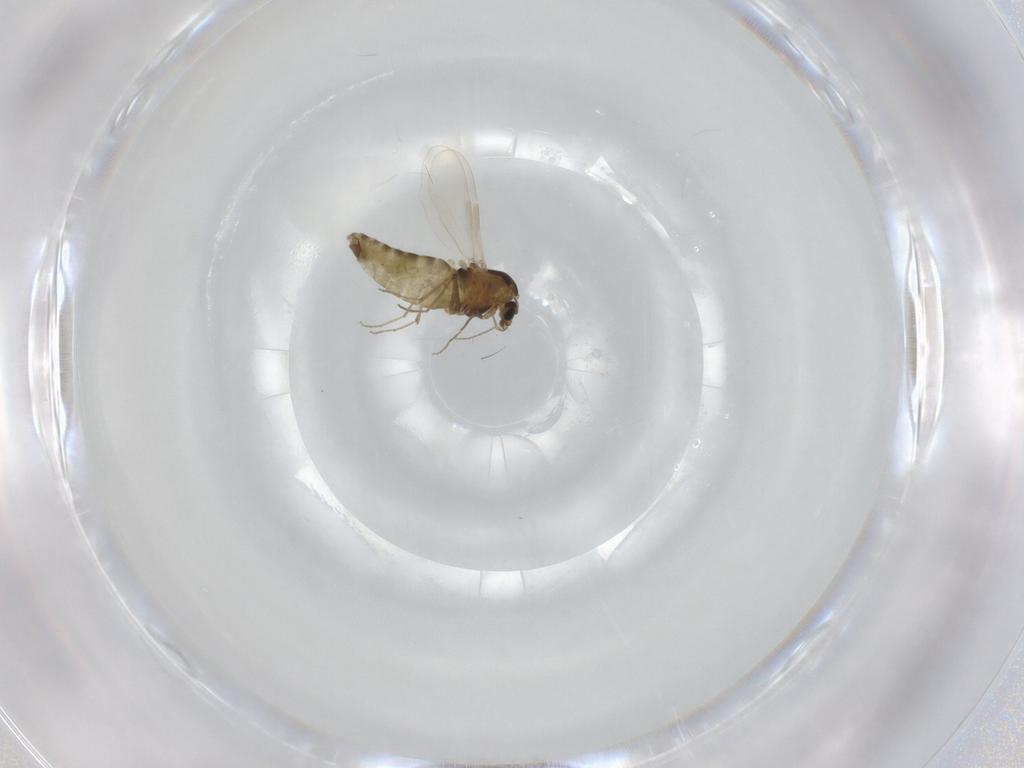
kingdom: Animalia
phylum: Arthropoda
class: Insecta
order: Diptera
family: Chironomidae
